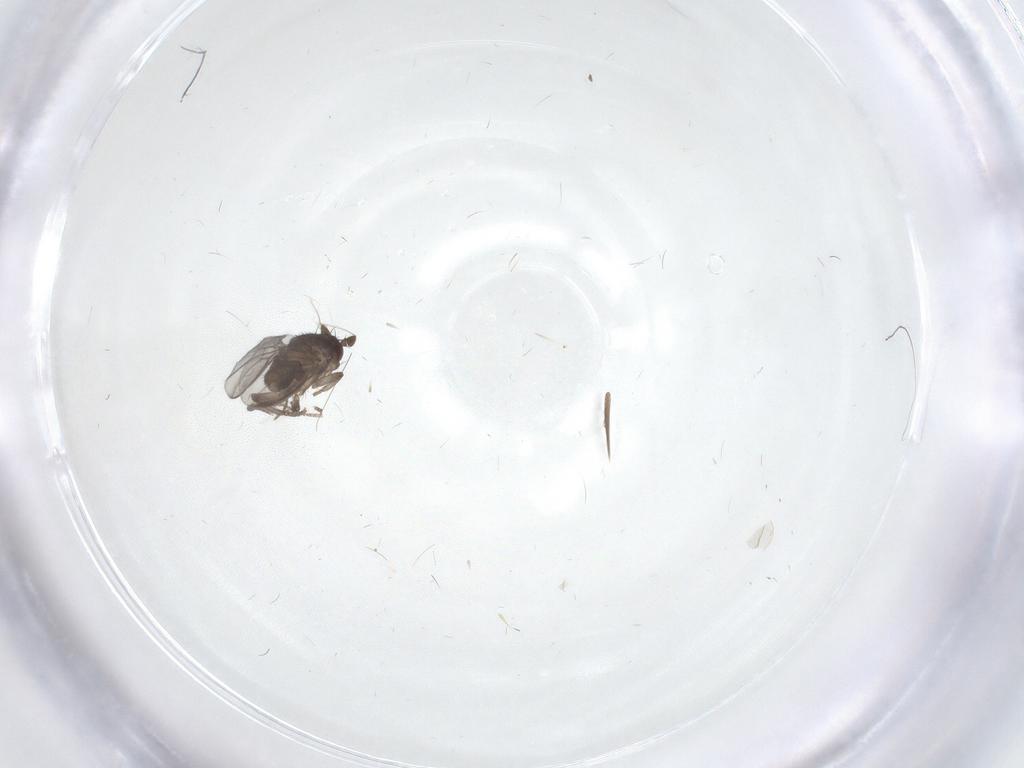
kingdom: Animalia
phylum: Arthropoda
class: Insecta
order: Diptera
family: Sphaeroceridae
